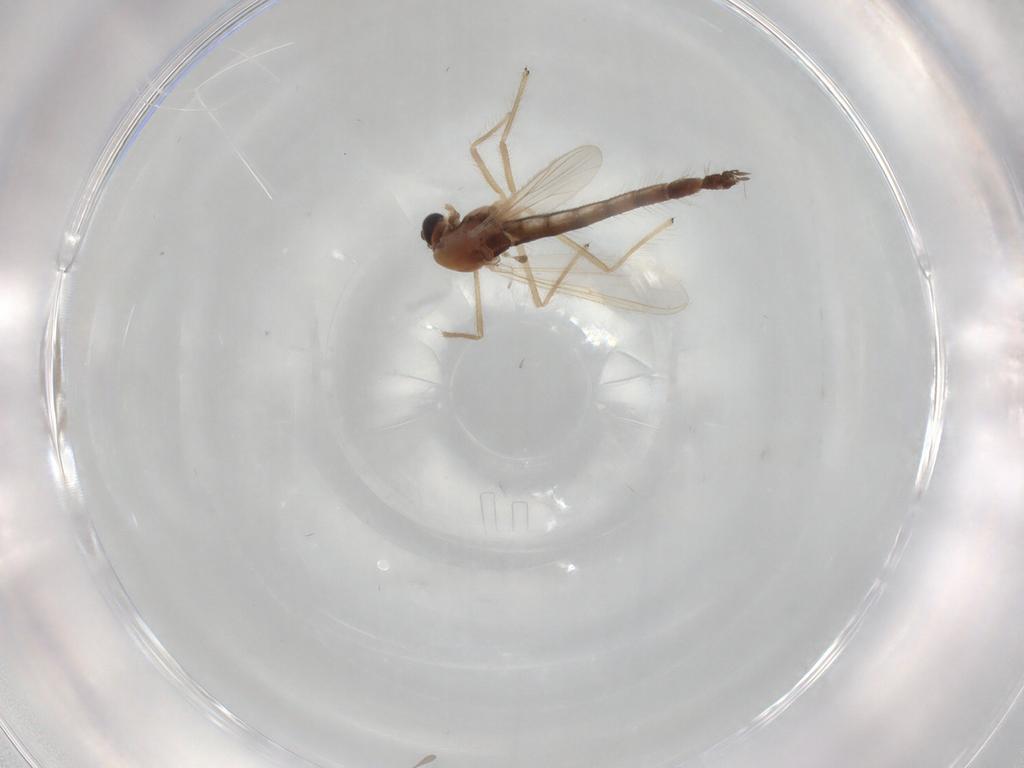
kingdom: Animalia
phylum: Arthropoda
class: Insecta
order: Diptera
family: Chironomidae
